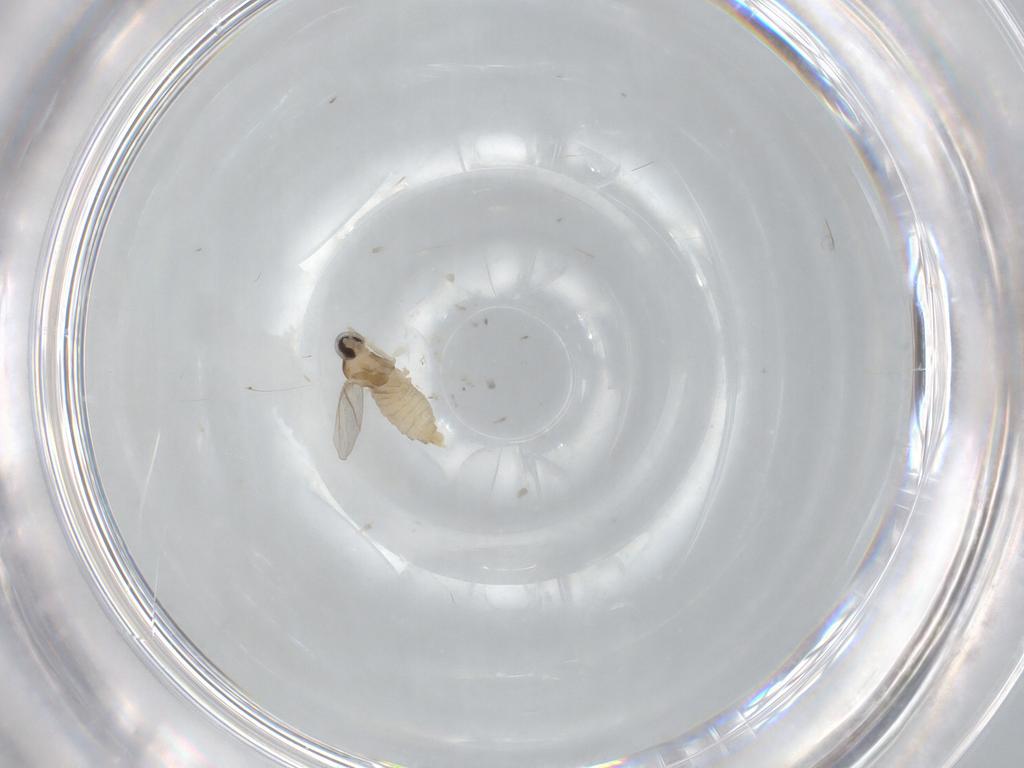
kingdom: Animalia
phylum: Arthropoda
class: Insecta
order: Diptera
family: Cecidomyiidae
